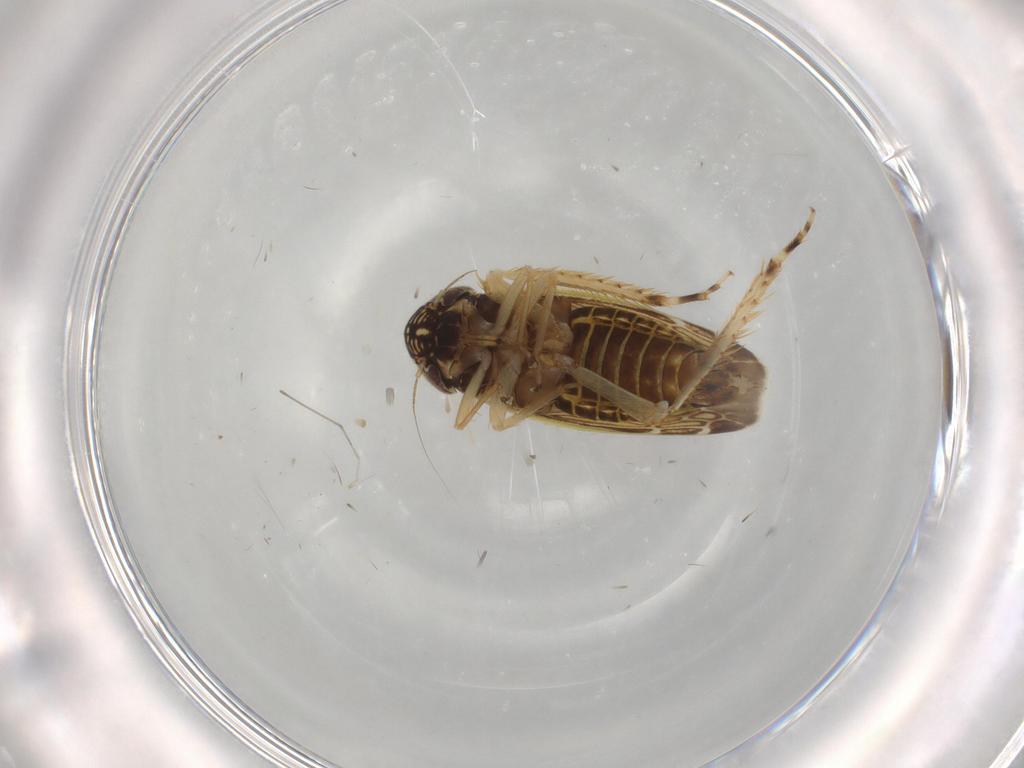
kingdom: Animalia
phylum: Arthropoda
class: Insecta
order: Hemiptera
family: Cicadellidae
